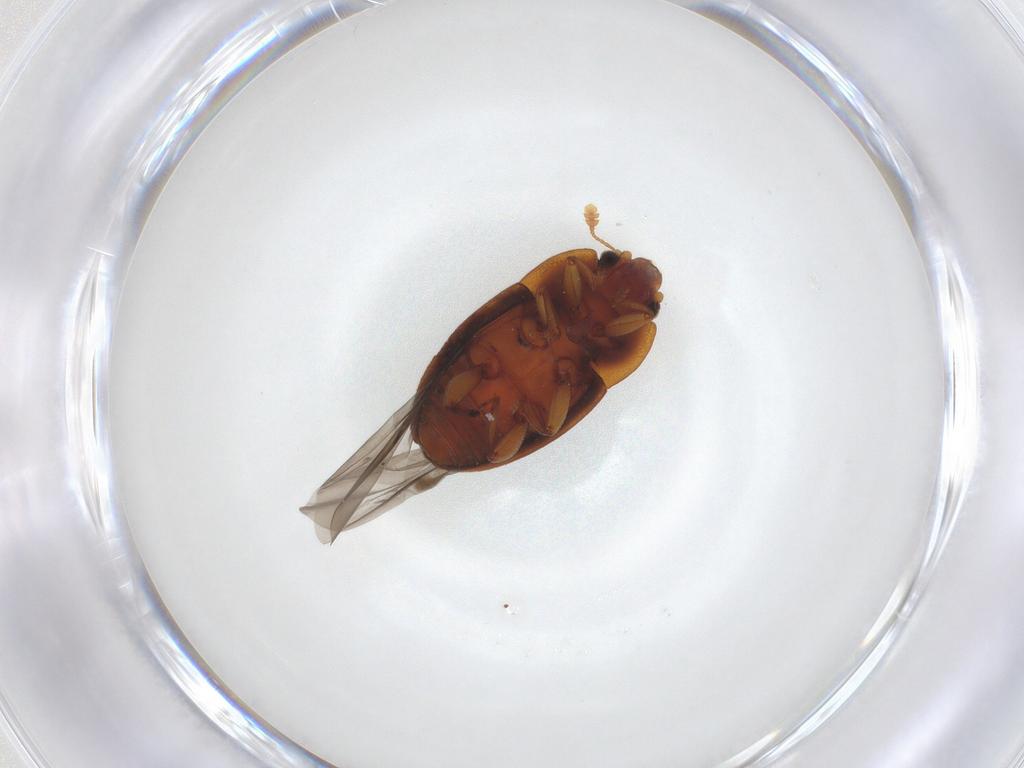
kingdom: Animalia
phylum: Arthropoda
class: Insecta
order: Coleoptera
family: Nitidulidae
